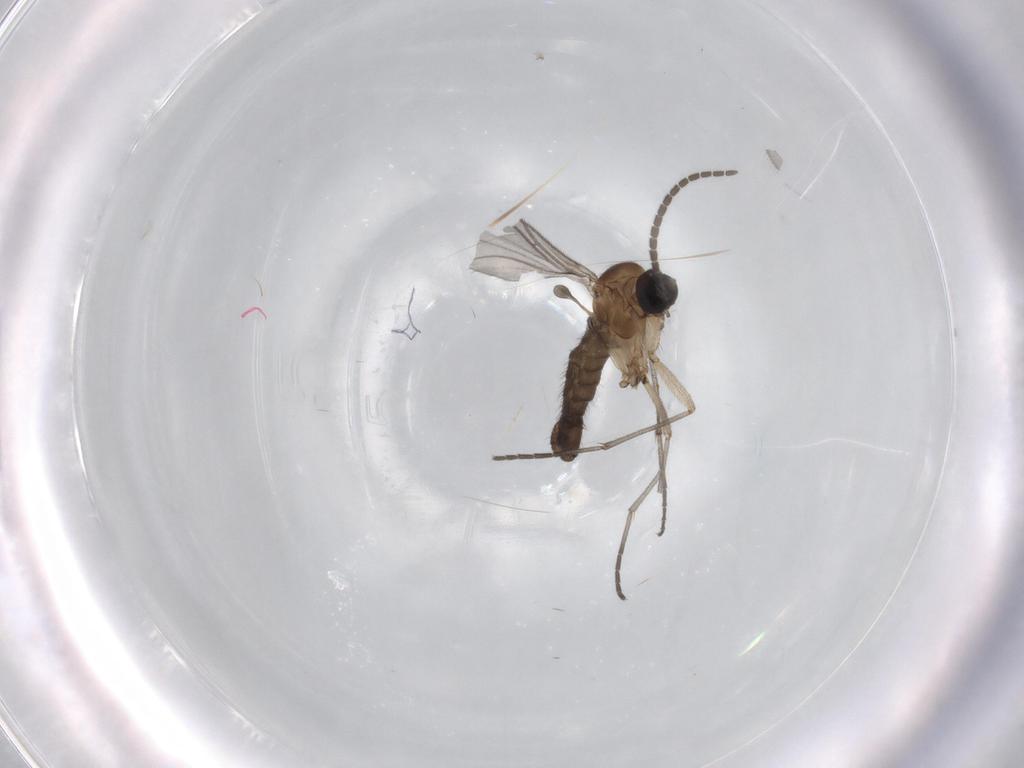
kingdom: Animalia
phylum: Arthropoda
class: Insecta
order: Diptera
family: Sciaridae
